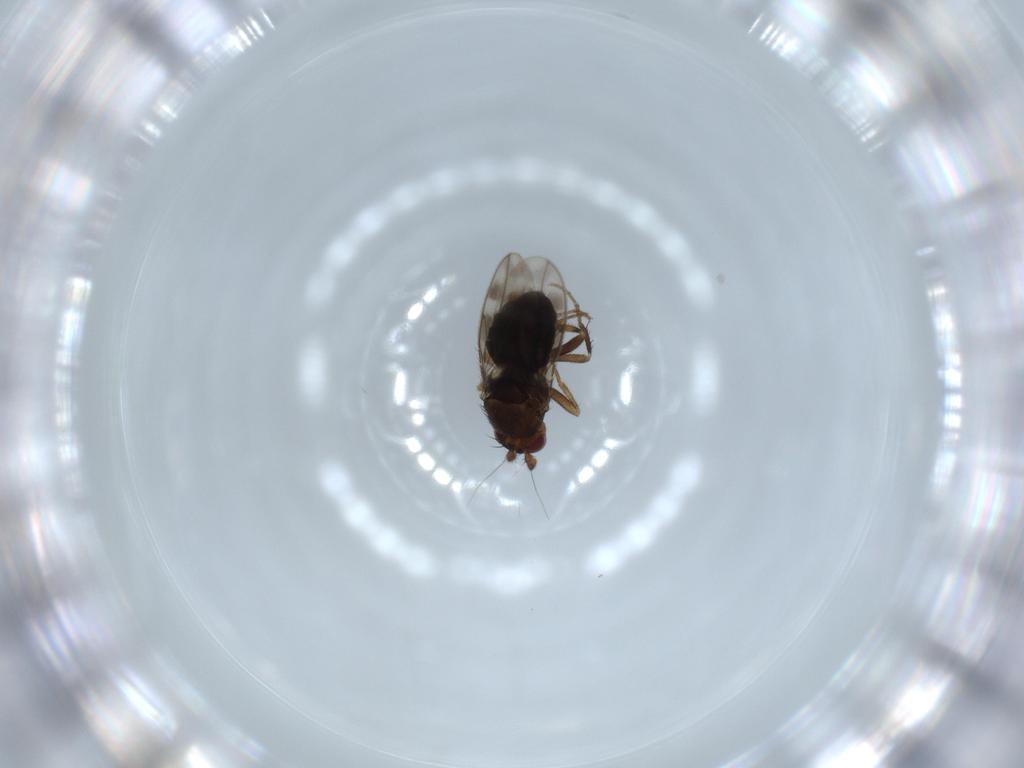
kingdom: Animalia
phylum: Arthropoda
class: Insecta
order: Diptera
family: Sphaeroceridae
